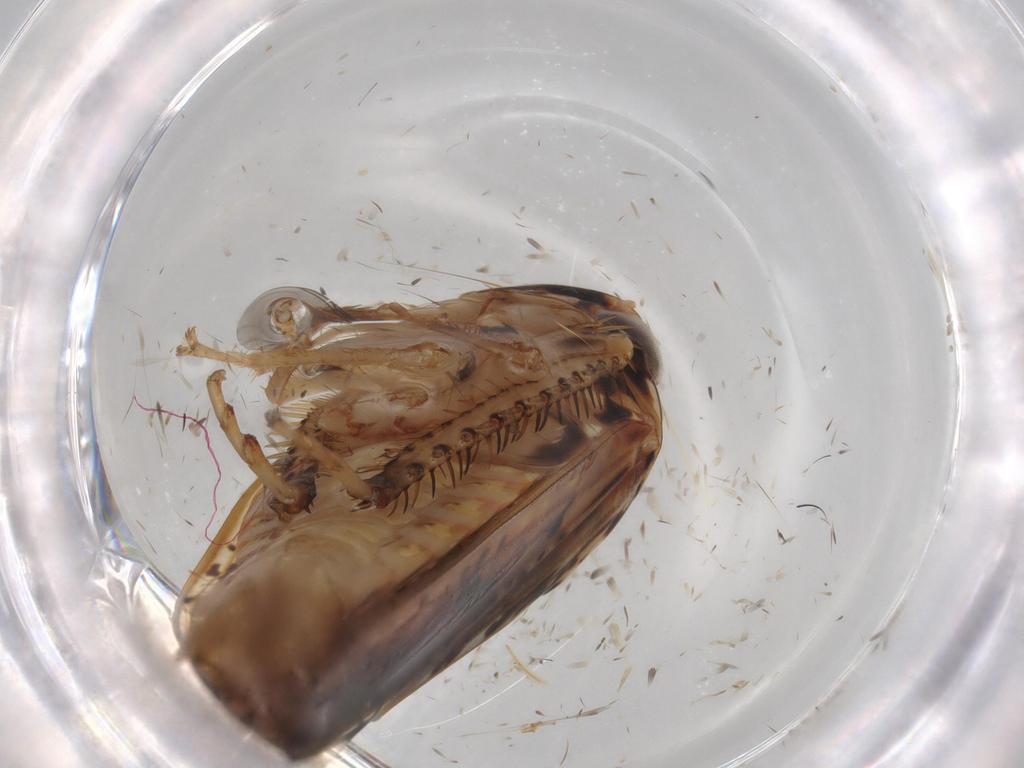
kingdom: Animalia
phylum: Arthropoda
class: Insecta
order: Hemiptera
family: Cicadellidae
